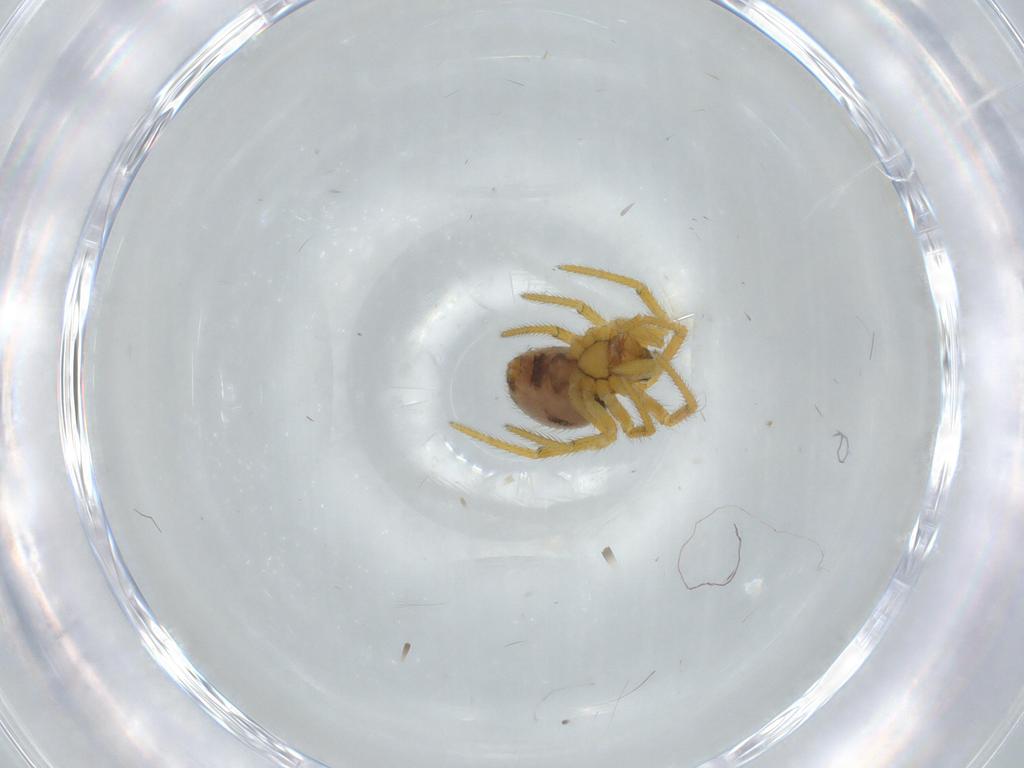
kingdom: Animalia
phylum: Arthropoda
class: Arachnida
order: Araneae
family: Theridiidae
